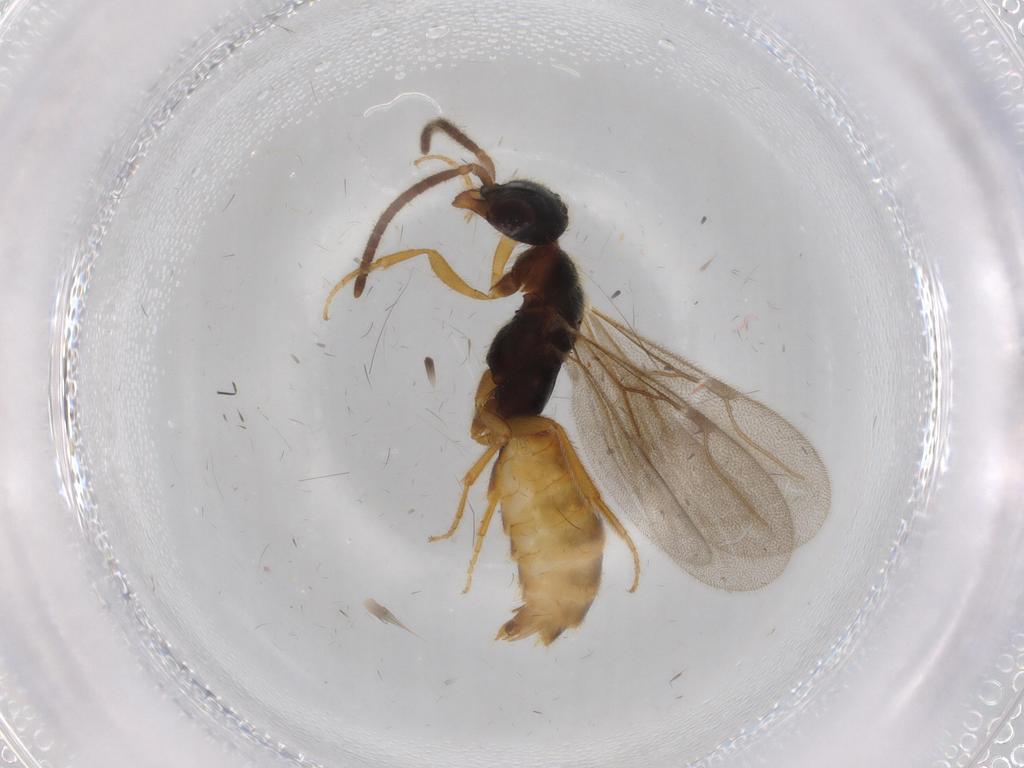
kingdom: Animalia
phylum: Arthropoda
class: Insecta
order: Hymenoptera
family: Bethylidae
